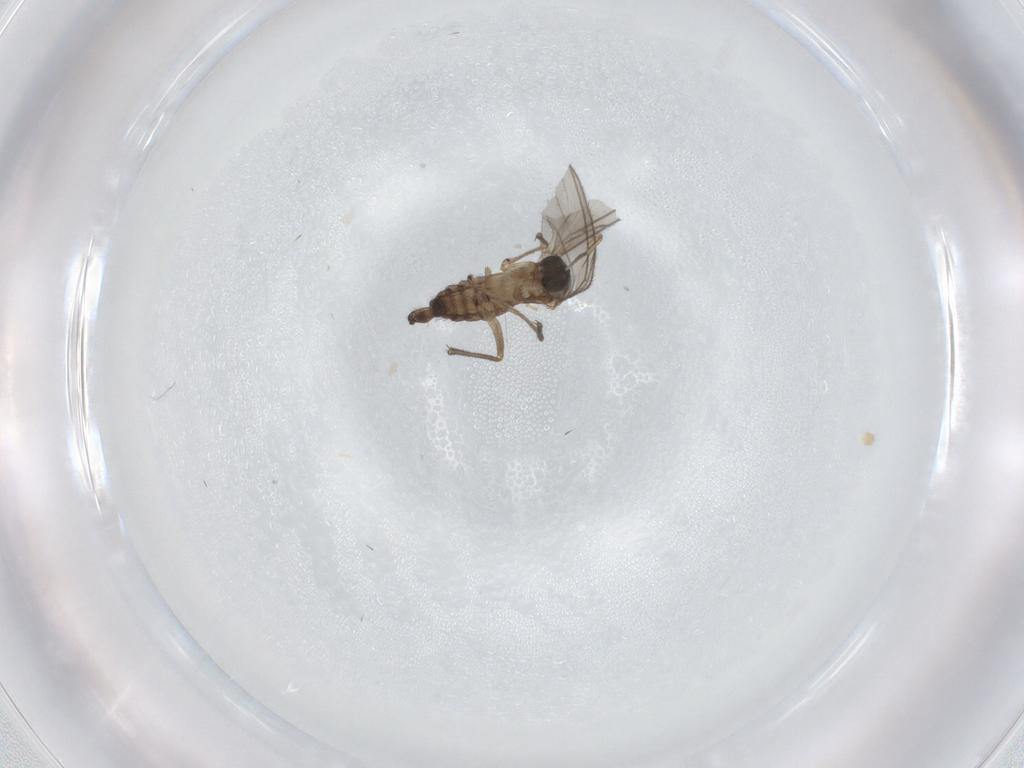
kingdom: Animalia
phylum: Arthropoda
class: Insecta
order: Diptera
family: Sciaridae
